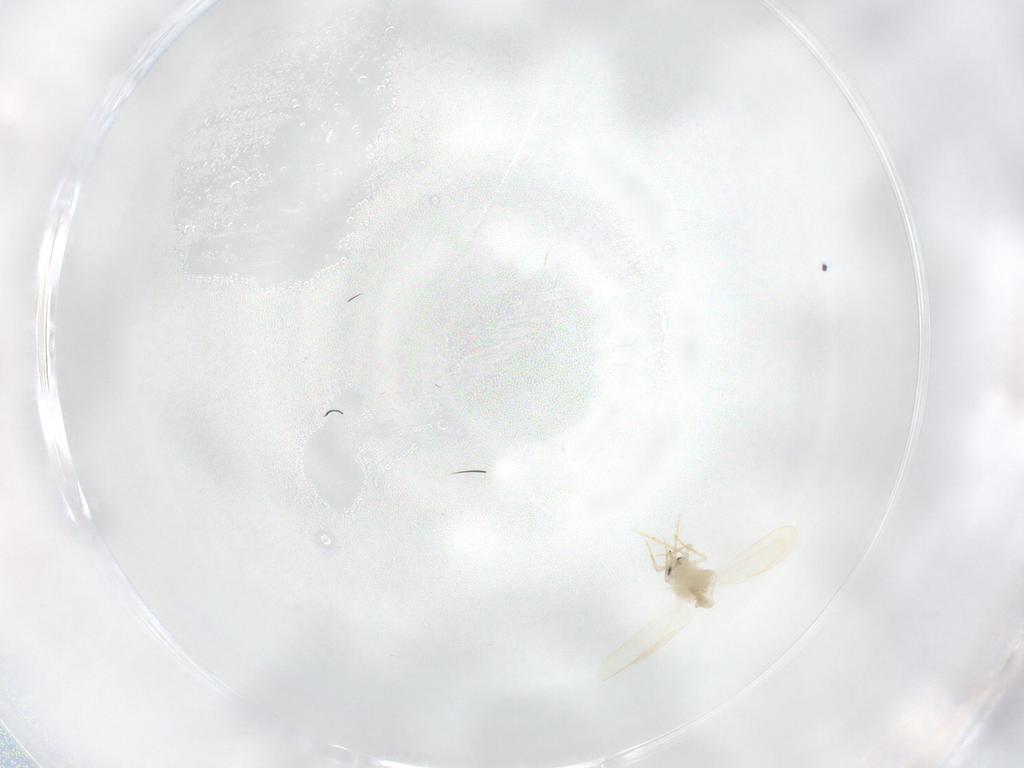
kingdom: Animalia
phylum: Arthropoda
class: Insecta
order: Hemiptera
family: Aleyrodidae
